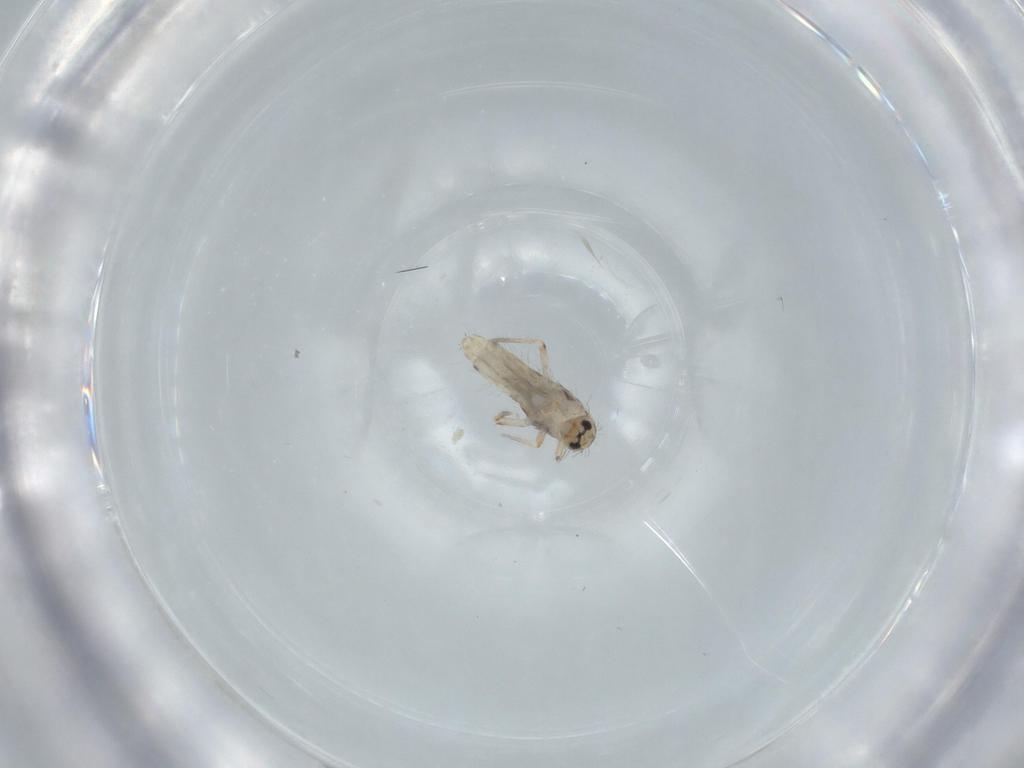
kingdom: Animalia
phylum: Arthropoda
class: Collembola
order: Entomobryomorpha
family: Entomobryidae
